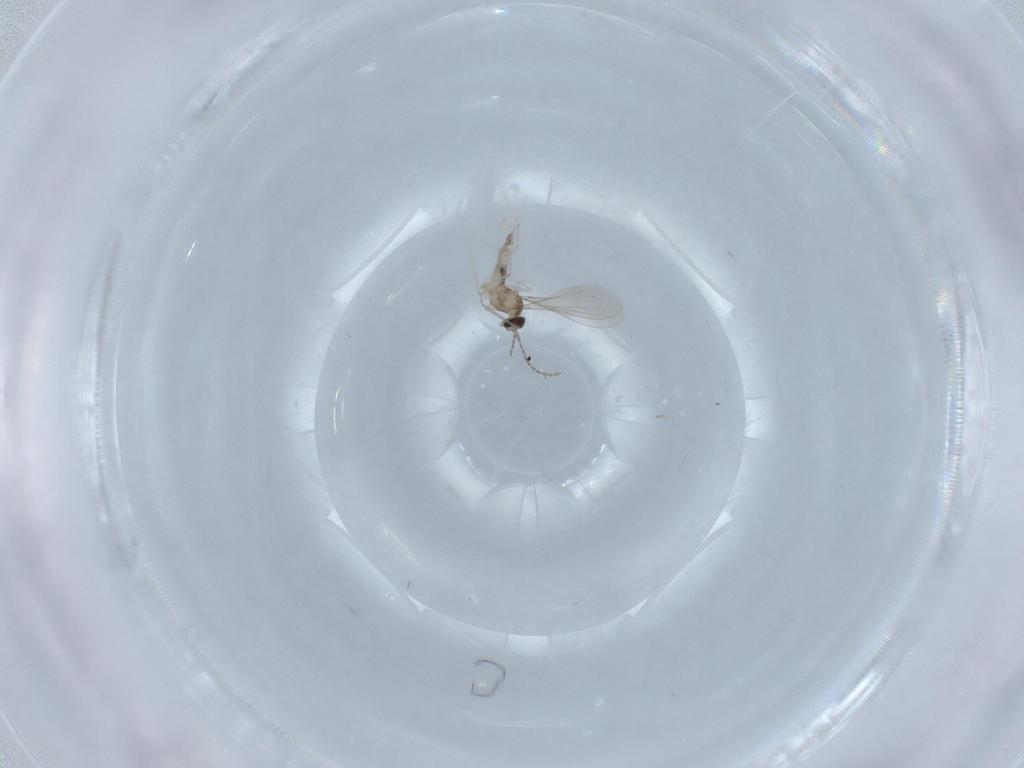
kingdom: Animalia
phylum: Arthropoda
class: Insecta
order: Diptera
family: Cecidomyiidae
